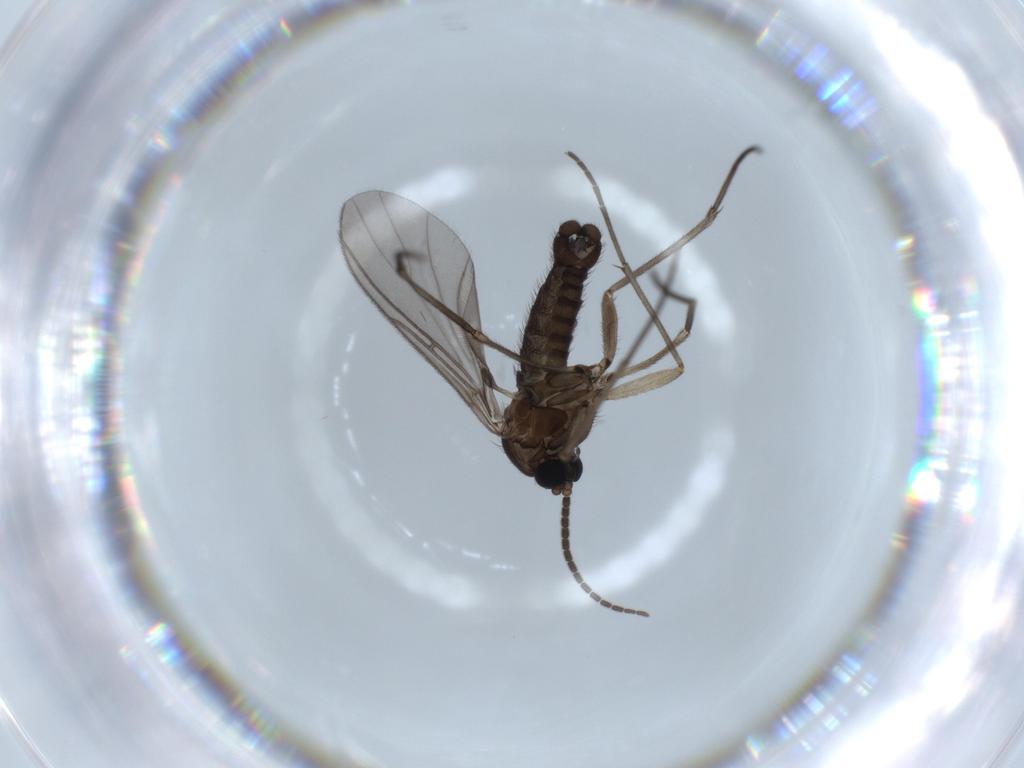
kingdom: Animalia
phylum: Arthropoda
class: Insecta
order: Diptera
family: Sciaridae
